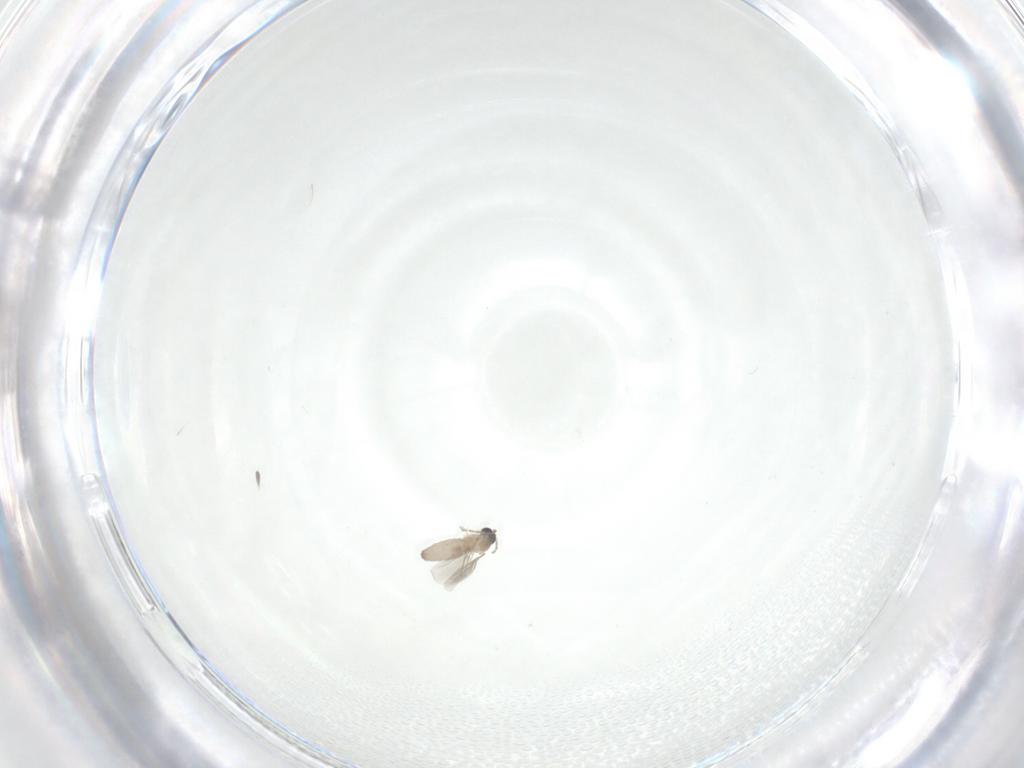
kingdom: Animalia
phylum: Arthropoda
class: Insecta
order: Diptera
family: Cecidomyiidae
